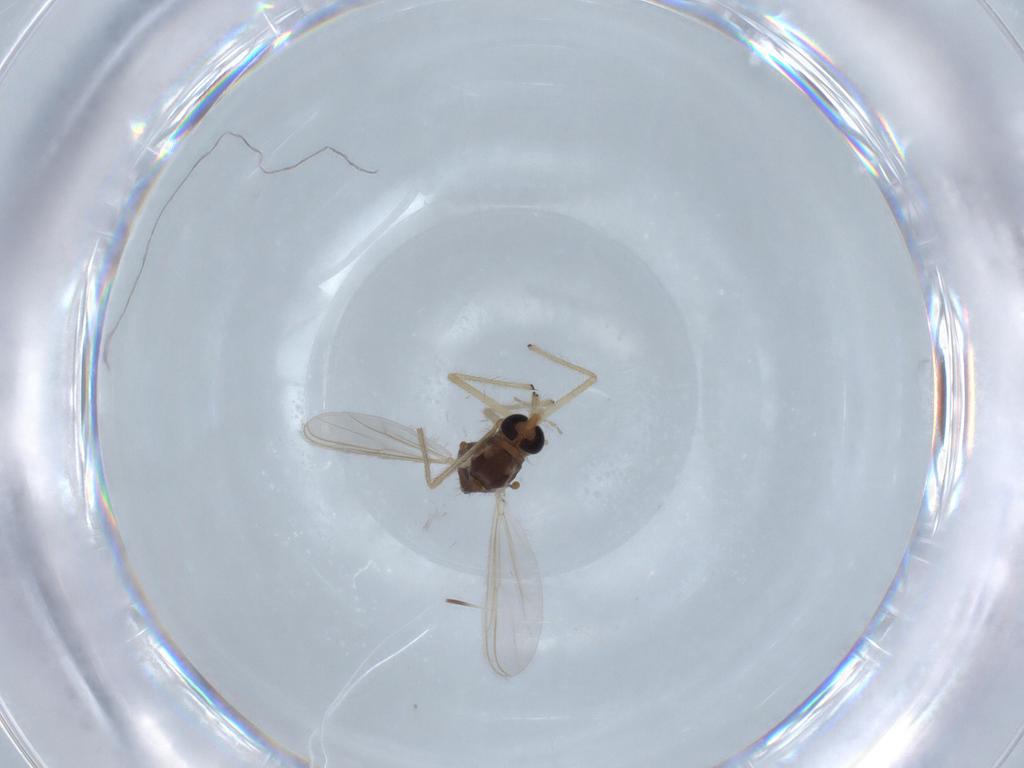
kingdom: Animalia
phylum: Arthropoda
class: Insecta
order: Diptera
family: Chironomidae
